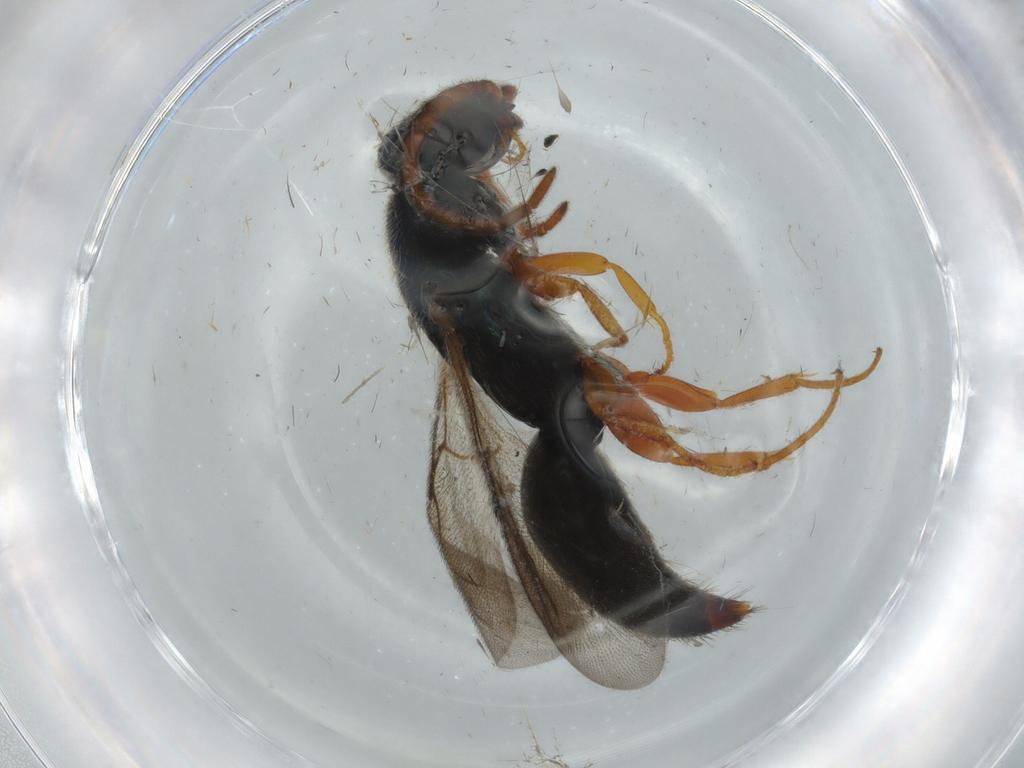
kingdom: Animalia
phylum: Arthropoda
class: Insecta
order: Hymenoptera
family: Bethylidae
